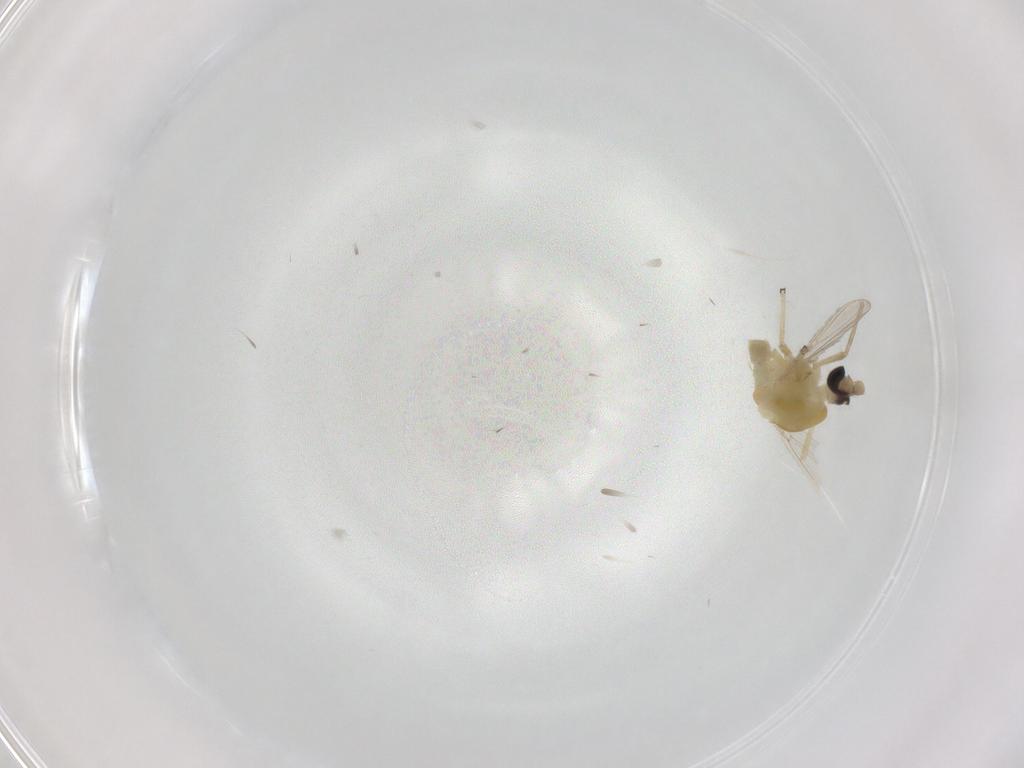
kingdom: Animalia
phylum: Arthropoda
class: Insecta
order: Diptera
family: Chironomidae
